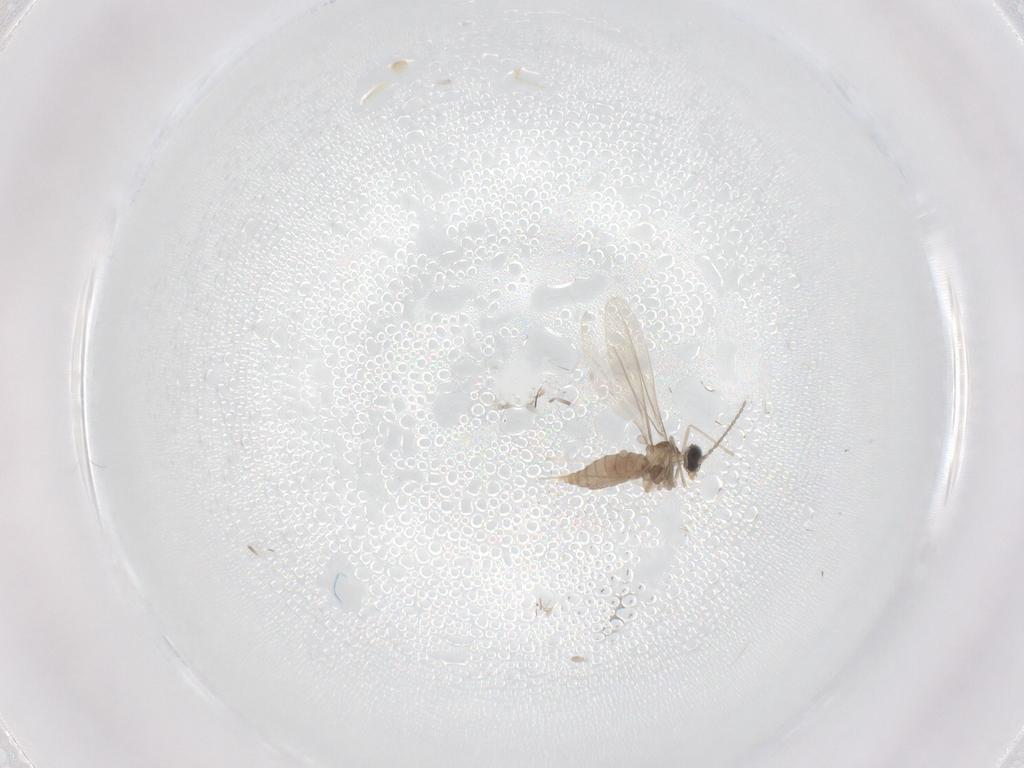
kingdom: Animalia
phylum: Arthropoda
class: Insecta
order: Diptera
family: Cecidomyiidae
